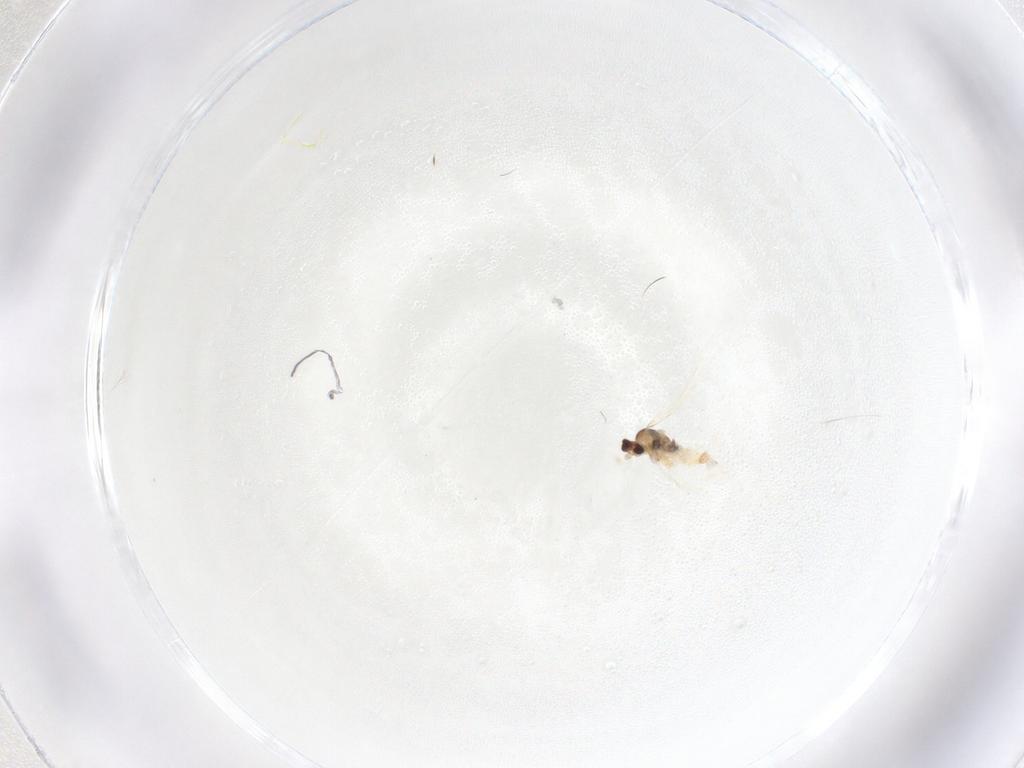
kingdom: Animalia
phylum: Arthropoda
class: Insecta
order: Diptera
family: Cecidomyiidae
